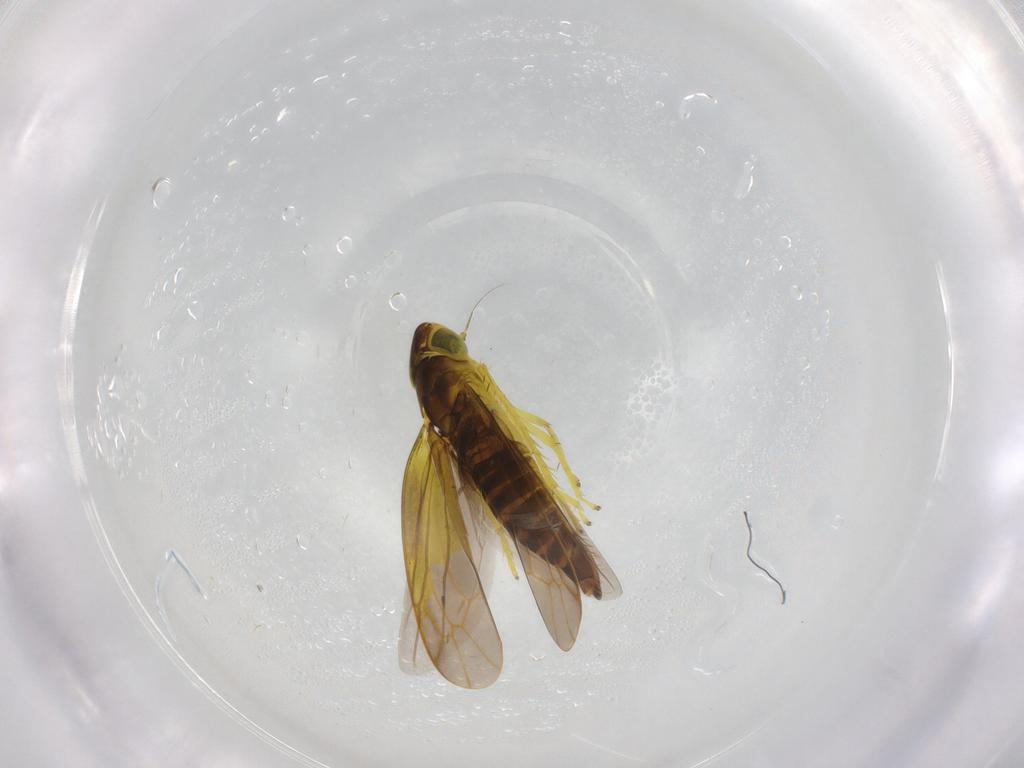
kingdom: Animalia
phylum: Arthropoda
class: Insecta
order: Hemiptera
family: Cicadellidae
